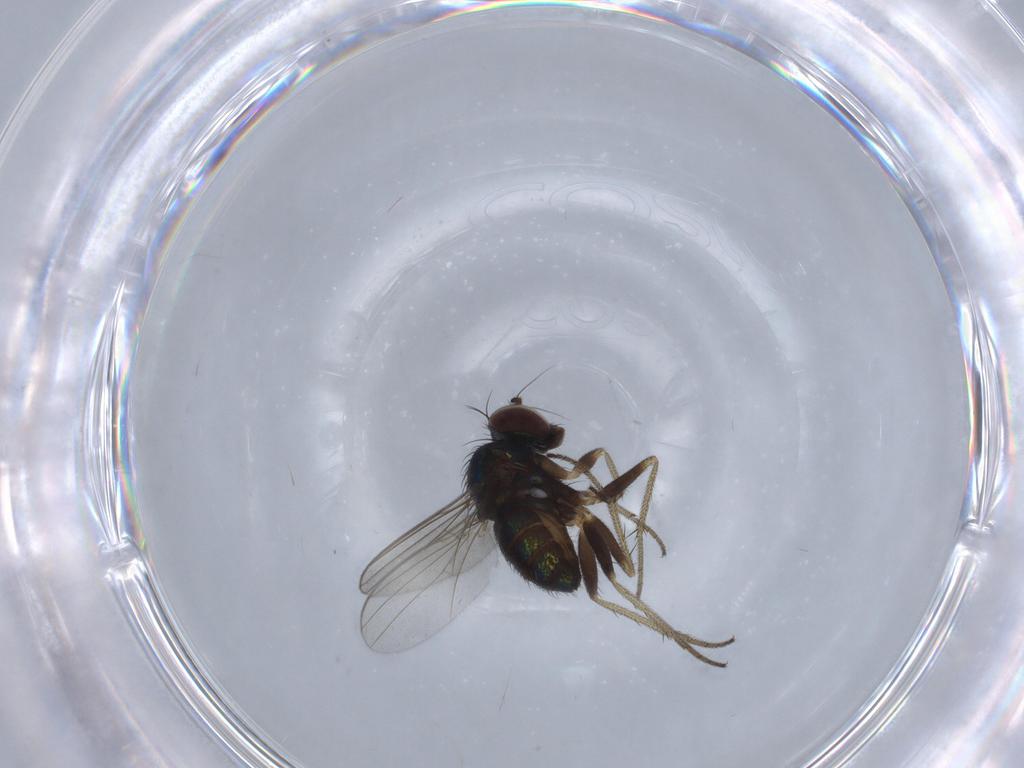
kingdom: Animalia
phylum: Arthropoda
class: Insecta
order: Diptera
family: Dolichopodidae
